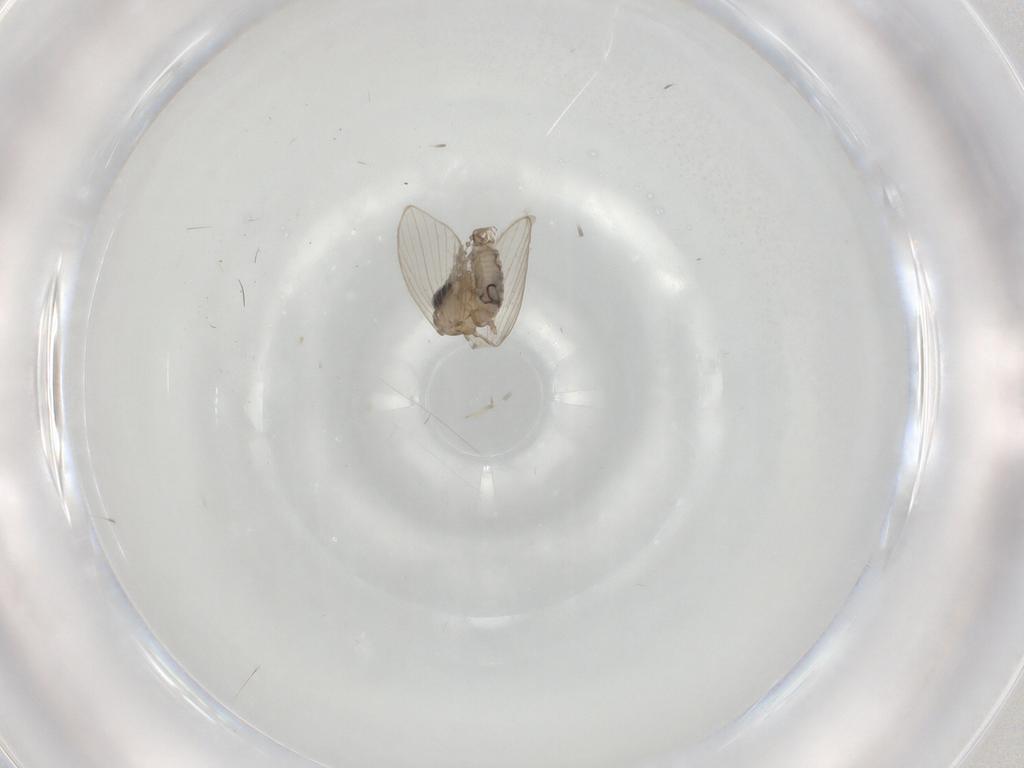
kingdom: Animalia
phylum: Arthropoda
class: Insecta
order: Diptera
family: Psychodidae
